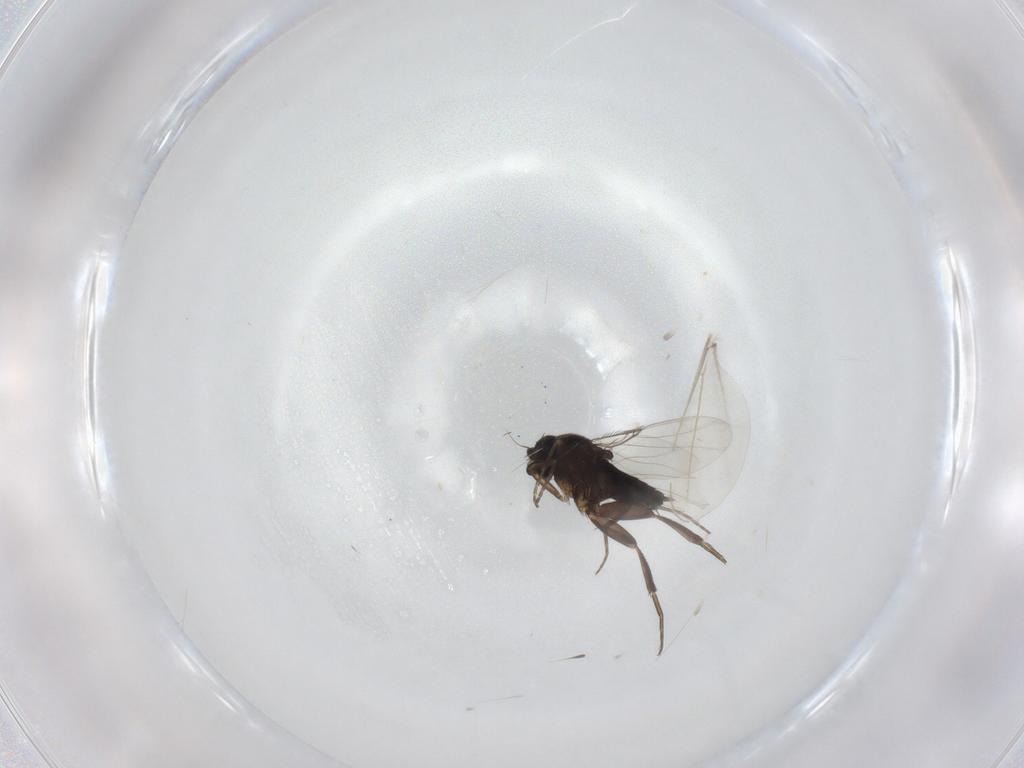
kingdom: Animalia
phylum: Arthropoda
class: Insecta
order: Diptera
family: Phoridae
